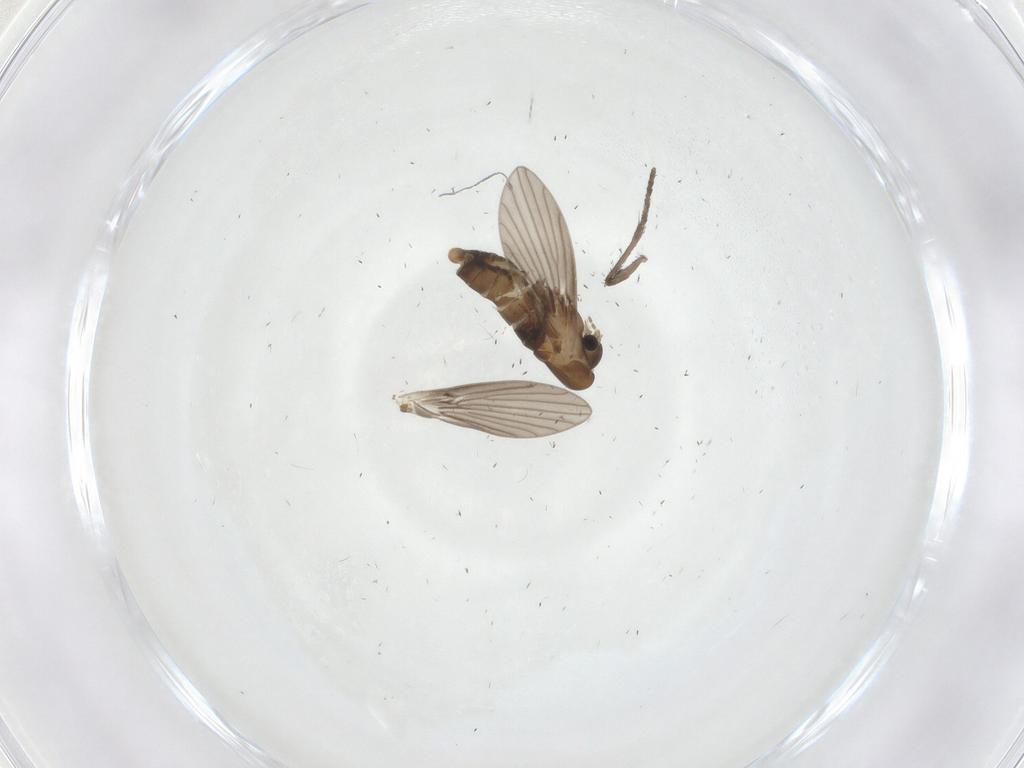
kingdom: Animalia
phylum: Arthropoda
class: Insecta
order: Diptera
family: Psychodidae
